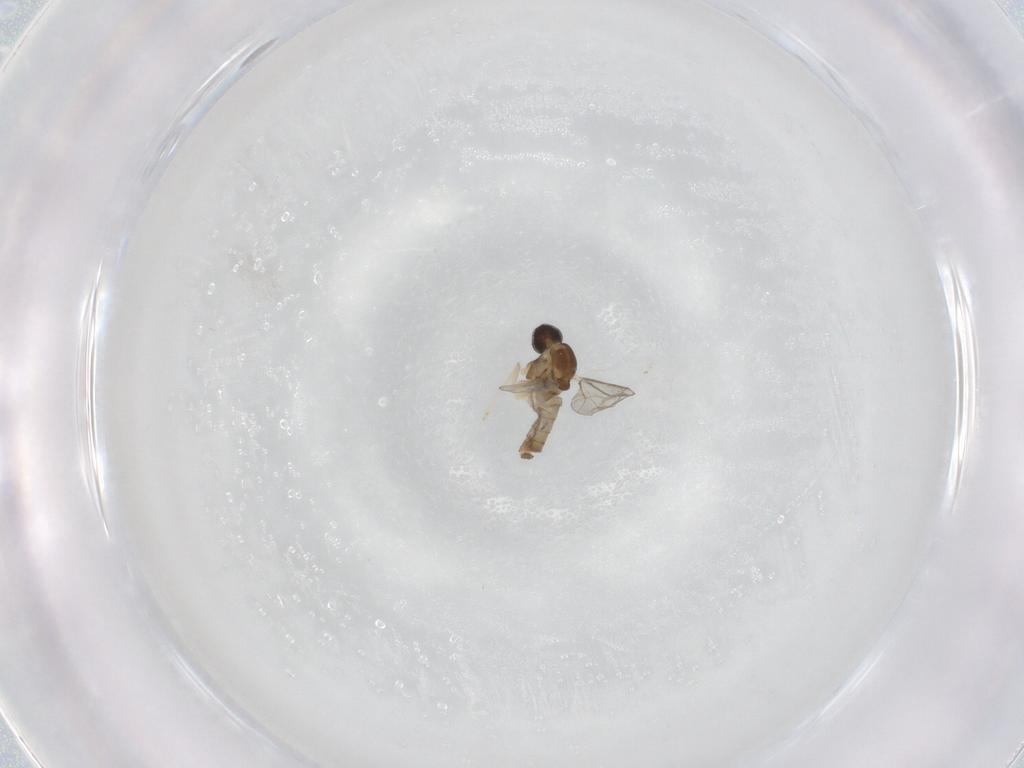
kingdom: Animalia
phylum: Arthropoda
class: Insecta
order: Diptera
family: Cecidomyiidae
